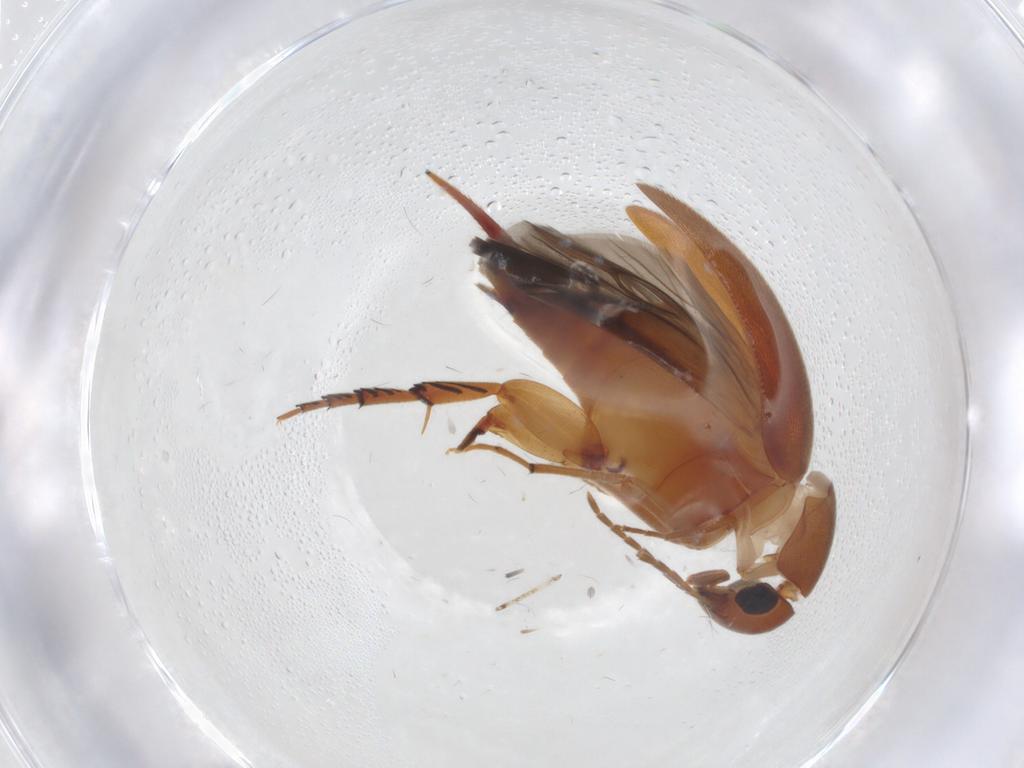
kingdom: Animalia
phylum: Arthropoda
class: Insecta
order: Coleoptera
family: Mordellidae
